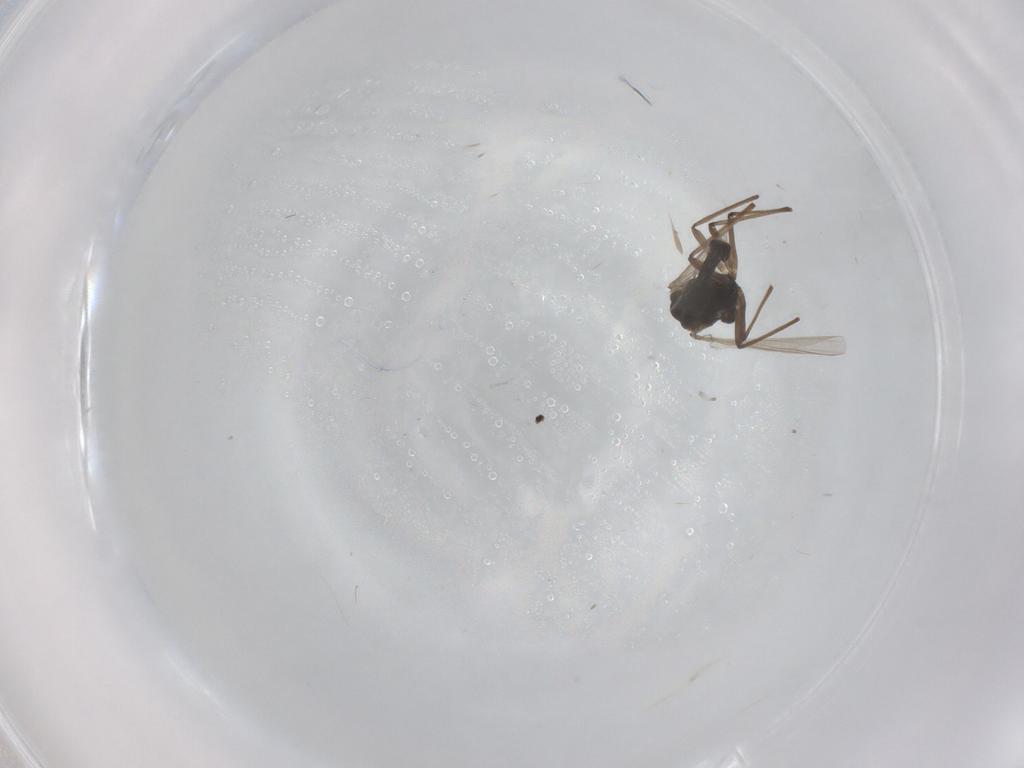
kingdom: Animalia
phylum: Arthropoda
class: Insecta
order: Diptera
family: Chironomidae
